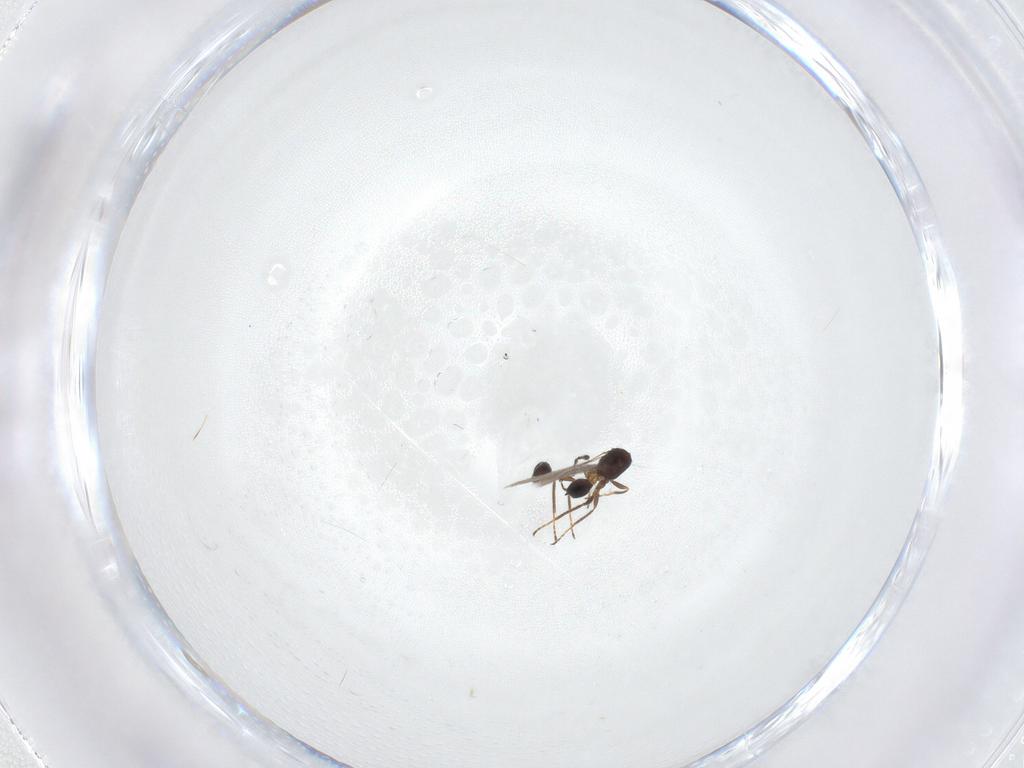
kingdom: Animalia
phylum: Arthropoda
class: Insecta
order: Hymenoptera
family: Mymaridae
